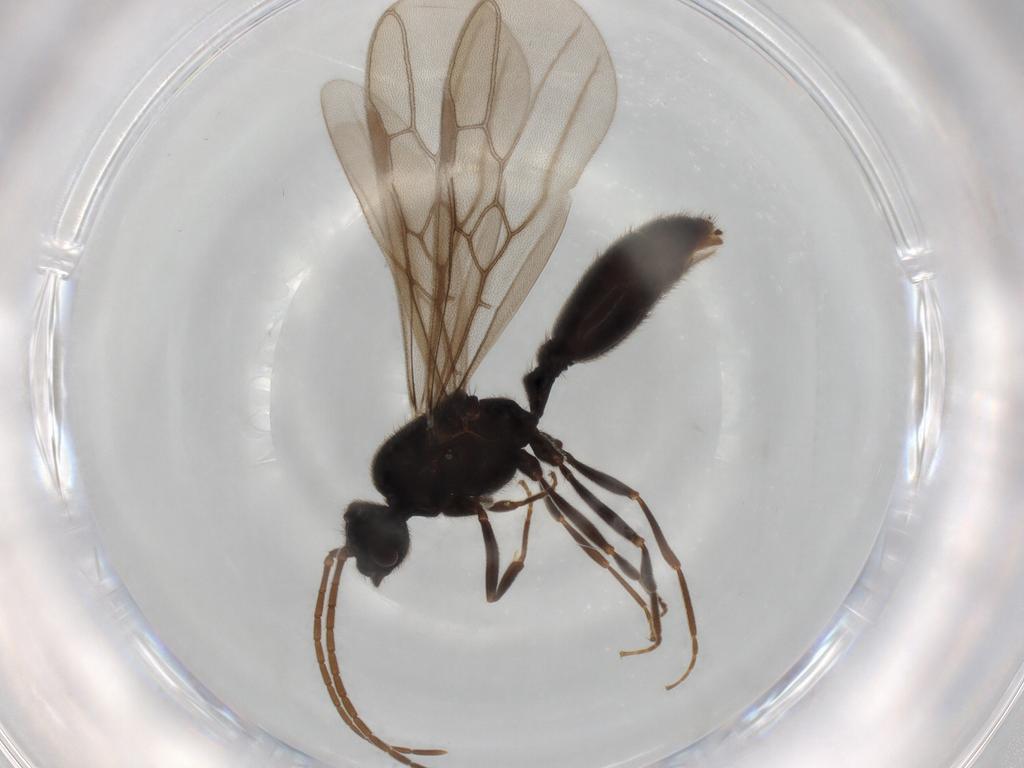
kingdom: Animalia
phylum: Arthropoda
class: Insecta
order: Hymenoptera
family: Formicidae
